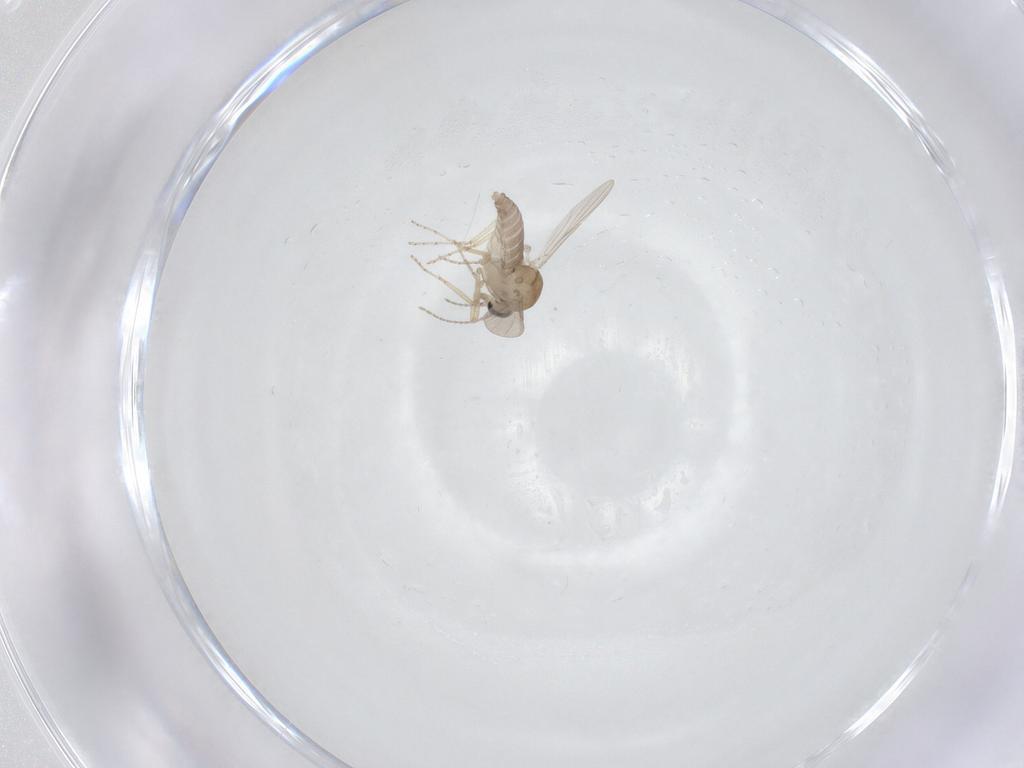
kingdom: Animalia
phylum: Arthropoda
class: Insecta
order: Diptera
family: Ceratopogonidae
